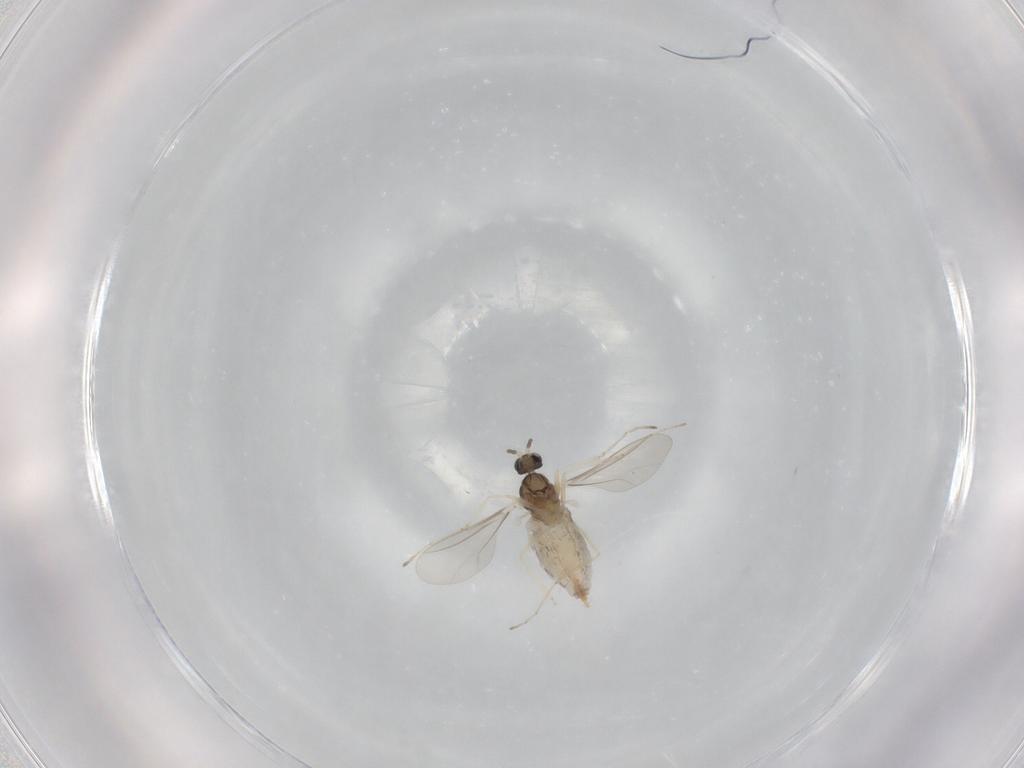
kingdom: Animalia
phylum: Arthropoda
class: Insecta
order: Diptera
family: Cecidomyiidae
